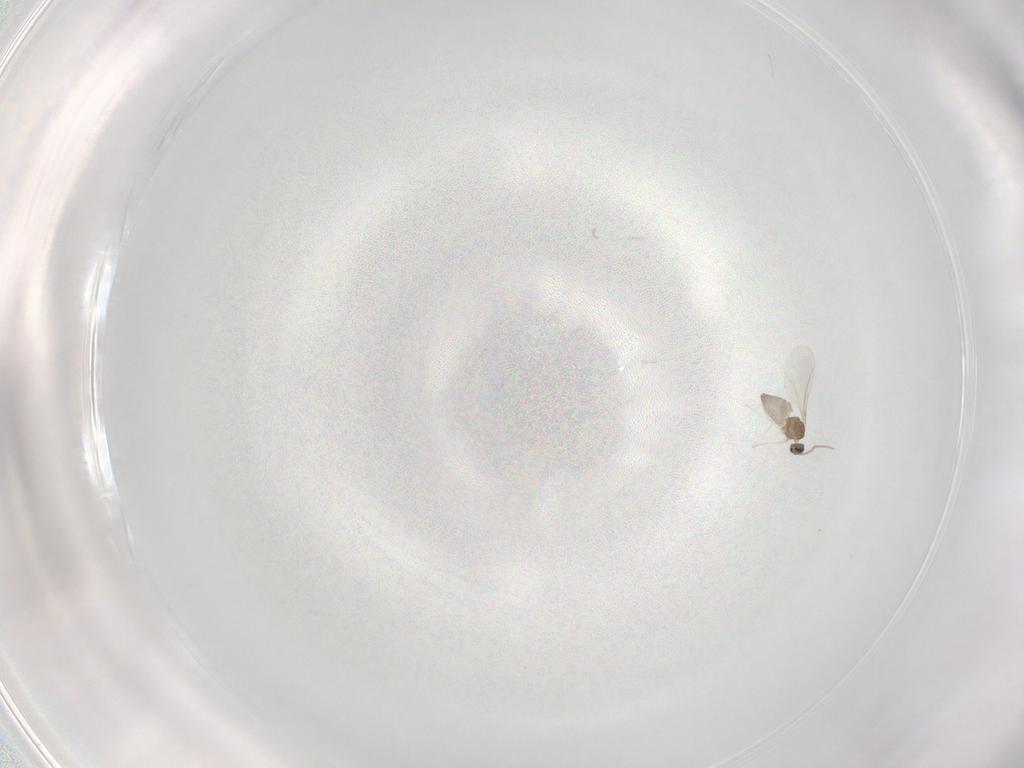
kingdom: Animalia
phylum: Arthropoda
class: Insecta
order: Diptera
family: Cecidomyiidae
